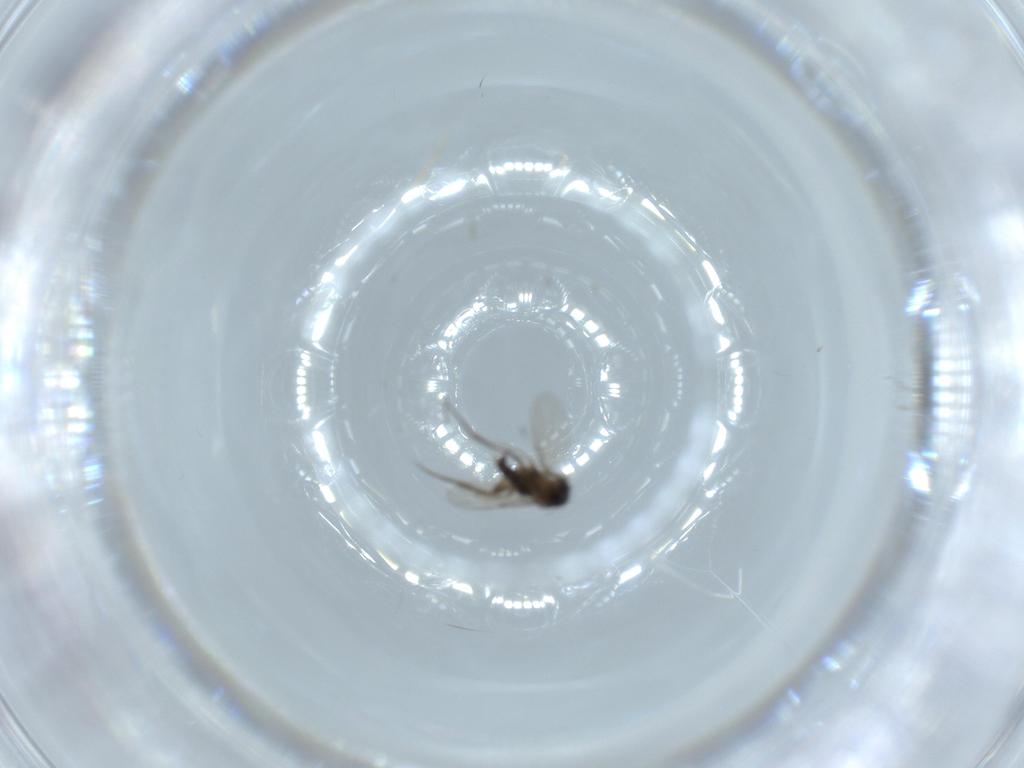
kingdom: Animalia
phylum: Arthropoda
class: Insecta
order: Diptera
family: Phoridae
